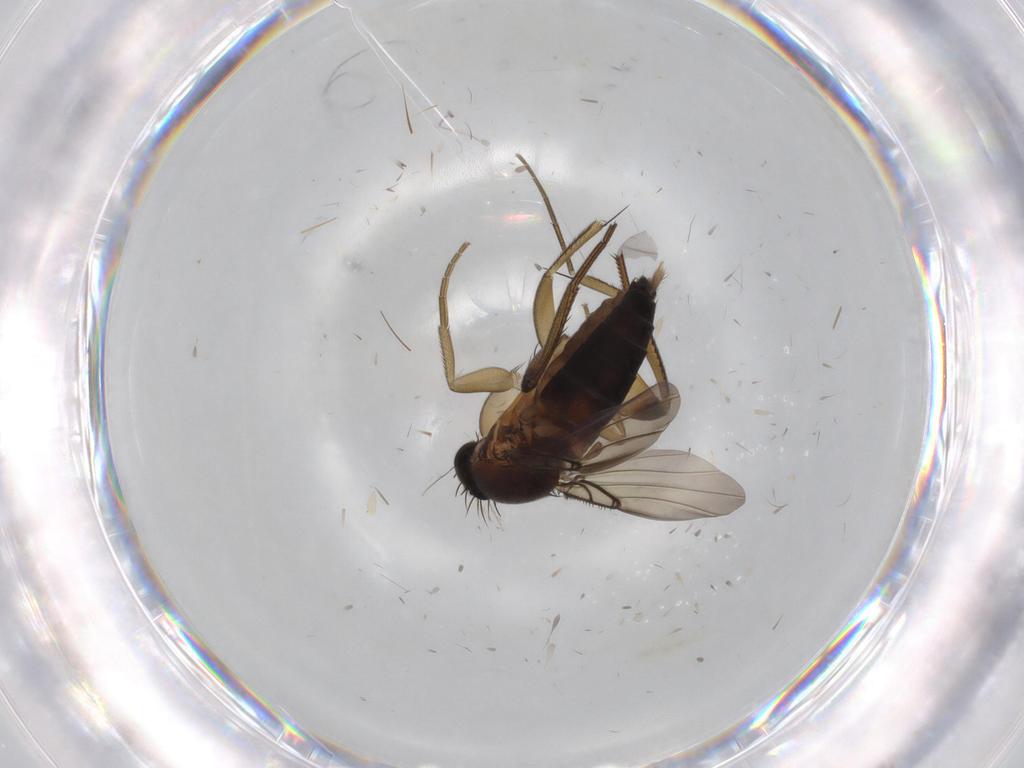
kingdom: Animalia
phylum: Arthropoda
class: Insecta
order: Diptera
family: Phoridae
